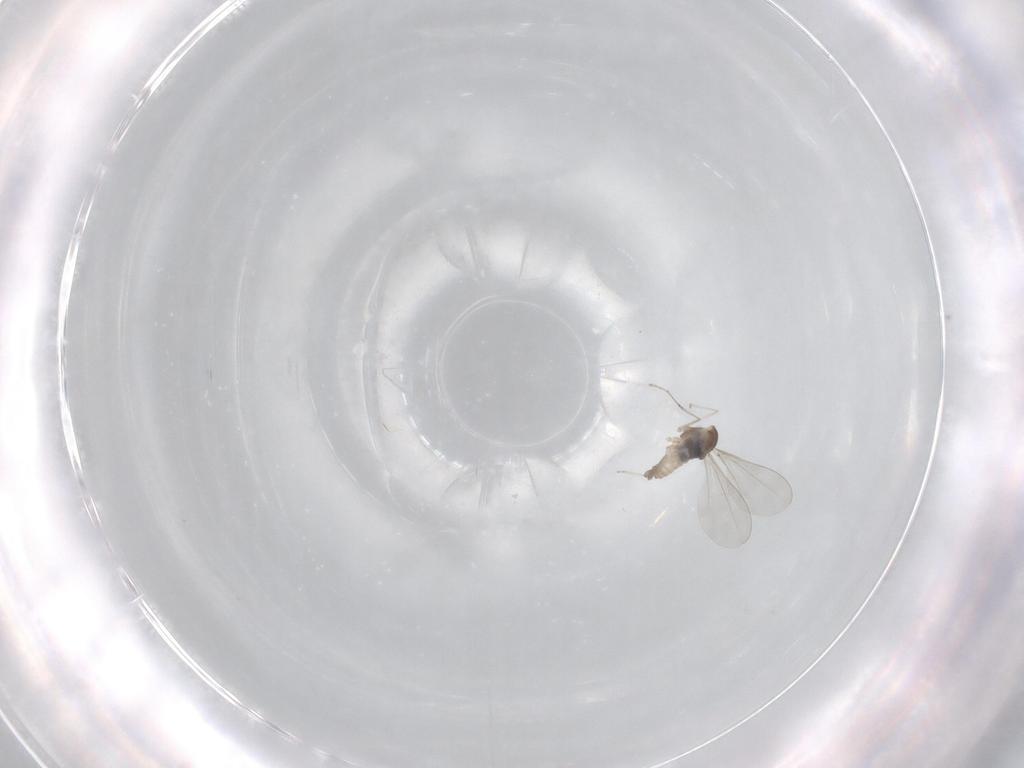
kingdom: Animalia
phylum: Arthropoda
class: Insecta
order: Diptera
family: Cecidomyiidae
